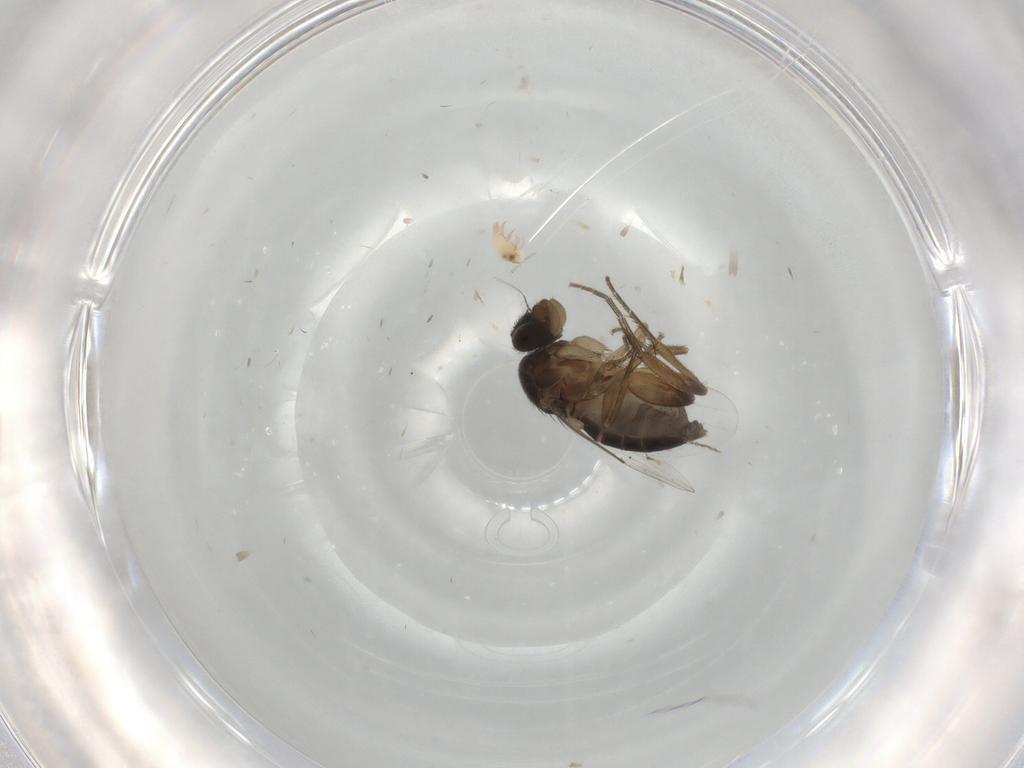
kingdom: Animalia
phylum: Arthropoda
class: Insecta
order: Diptera
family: Phoridae
